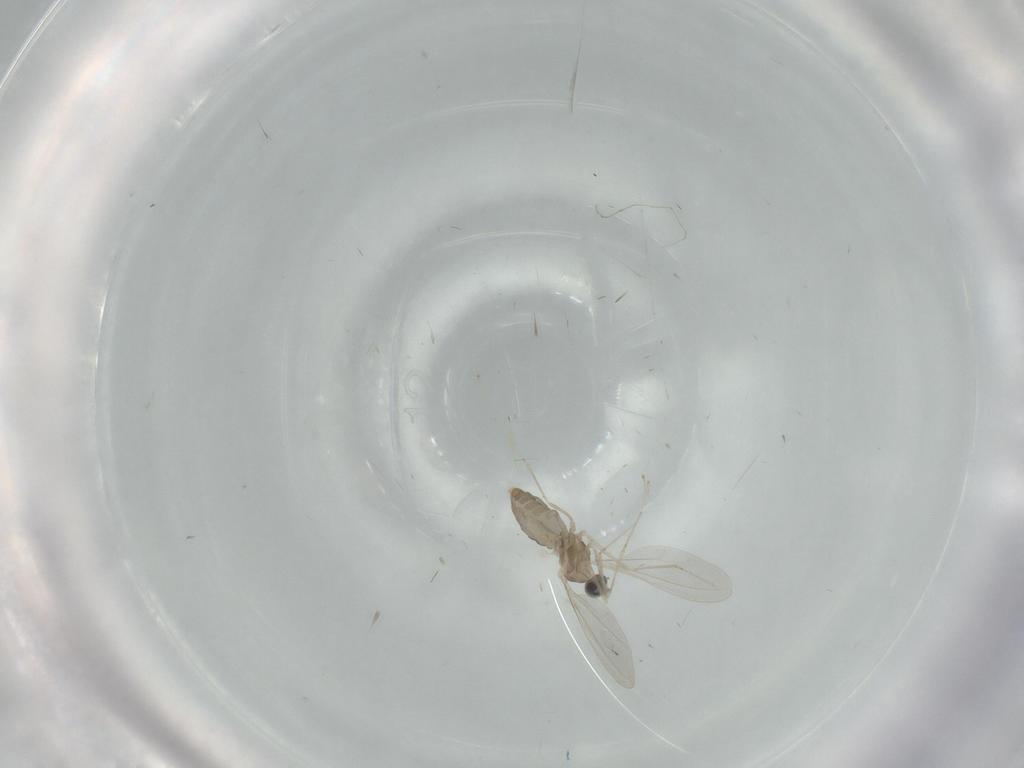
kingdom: Animalia
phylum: Arthropoda
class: Insecta
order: Diptera
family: Cecidomyiidae
